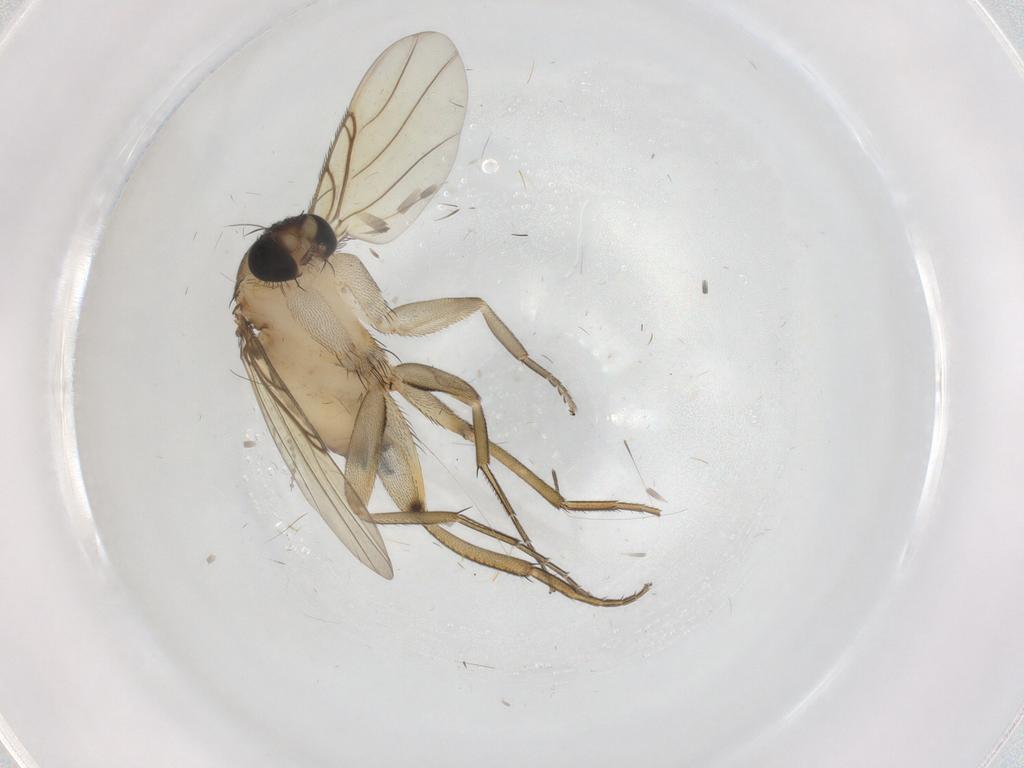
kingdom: Animalia
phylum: Arthropoda
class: Insecta
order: Diptera
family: Phoridae
